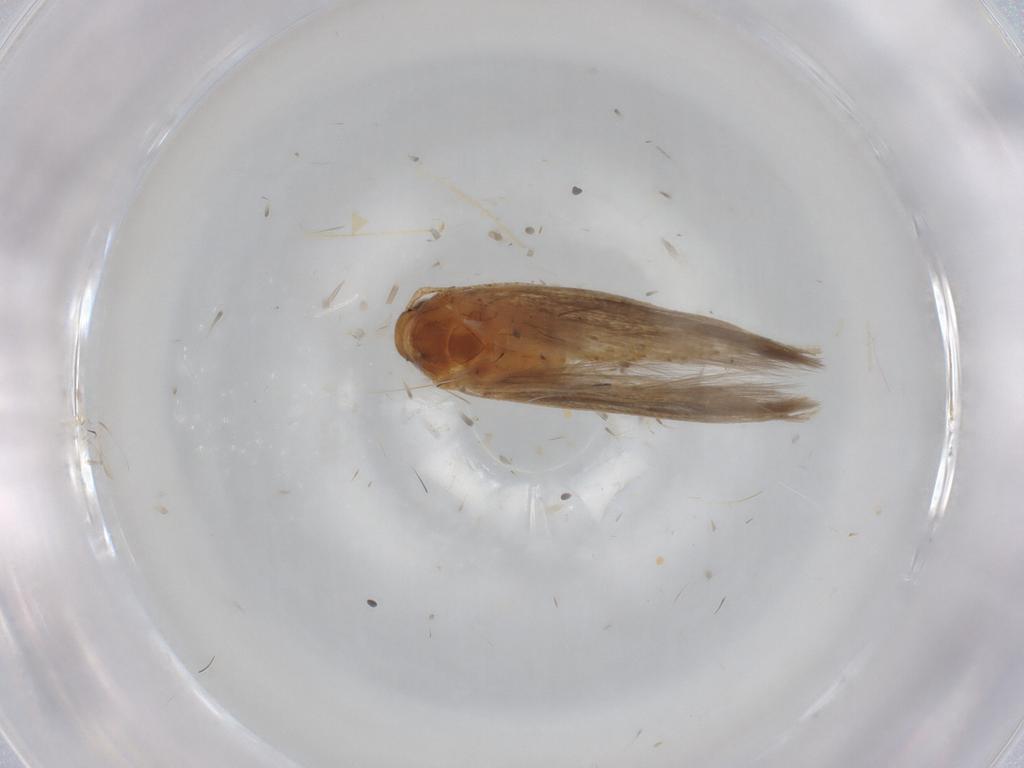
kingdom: Animalia
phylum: Arthropoda
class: Insecta
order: Lepidoptera
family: Gelechiidae
